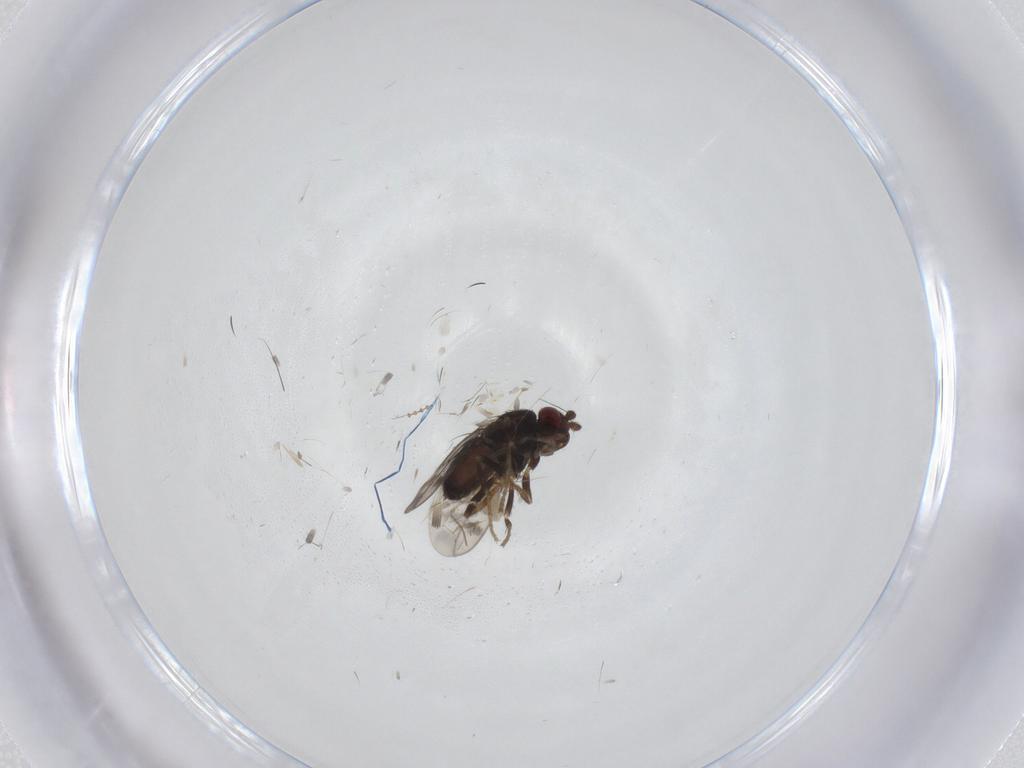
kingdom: Animalia
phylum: Arthropoda
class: Insecta
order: Diptera
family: Sphaeroceridae
